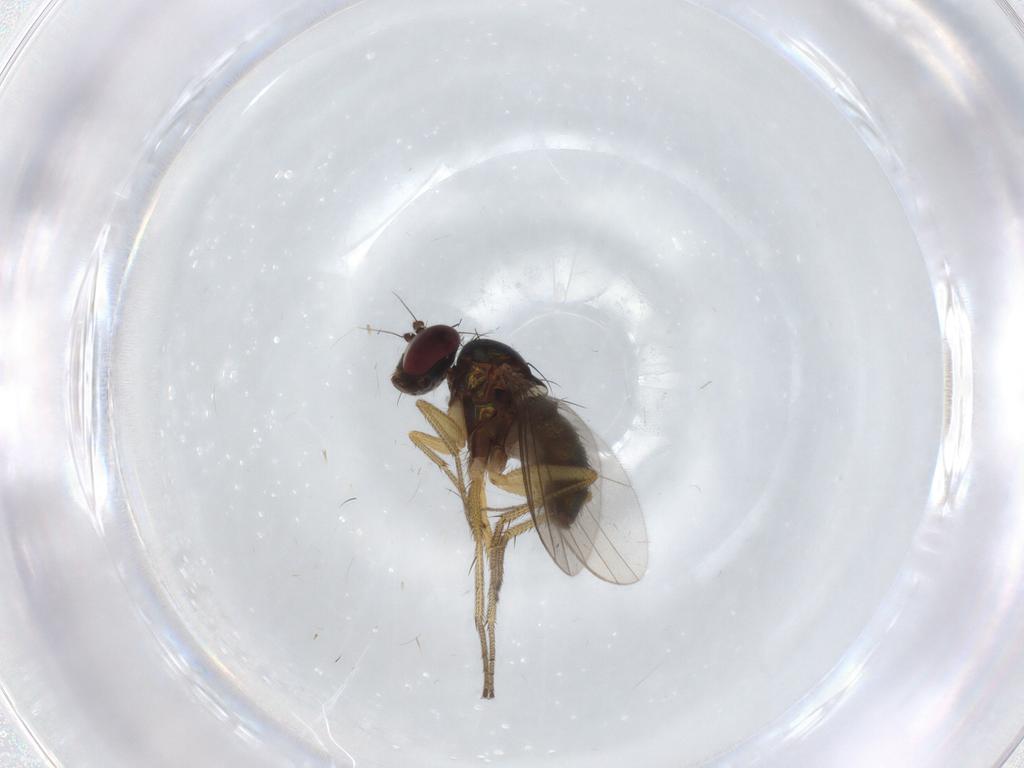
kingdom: Animalia
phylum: Arthropoda
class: Insecta
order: Diptera
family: Dolichopodidae
